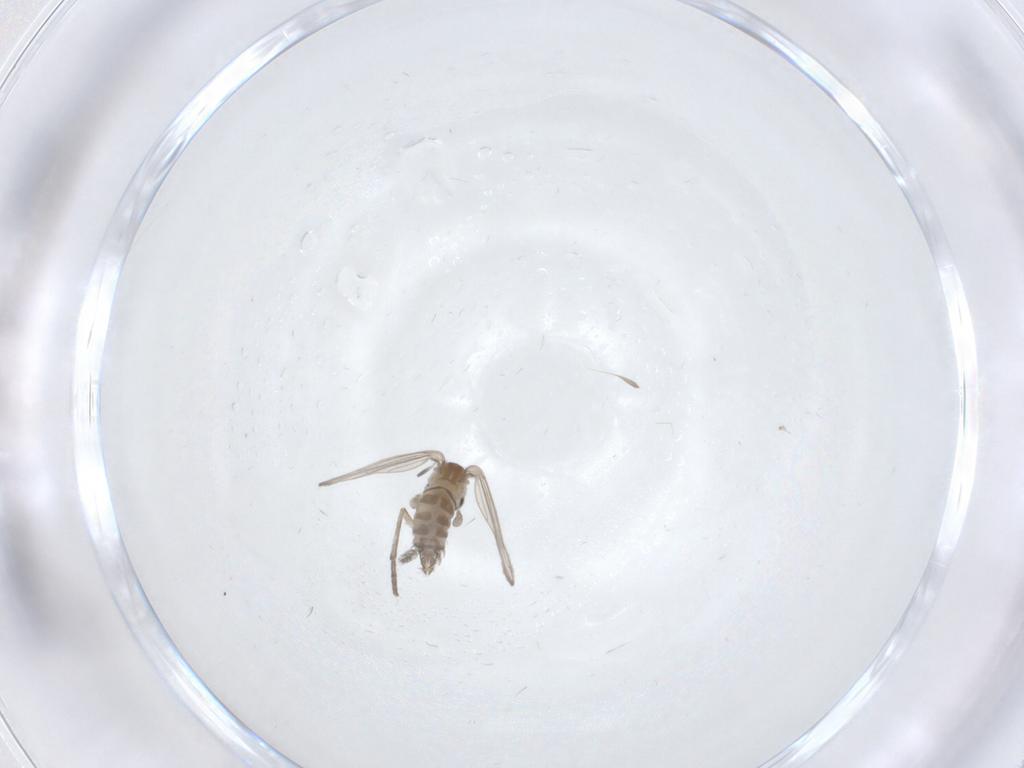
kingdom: Animalia
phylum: Arthropoda
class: Insecta
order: Diptera
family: Psychodidae
